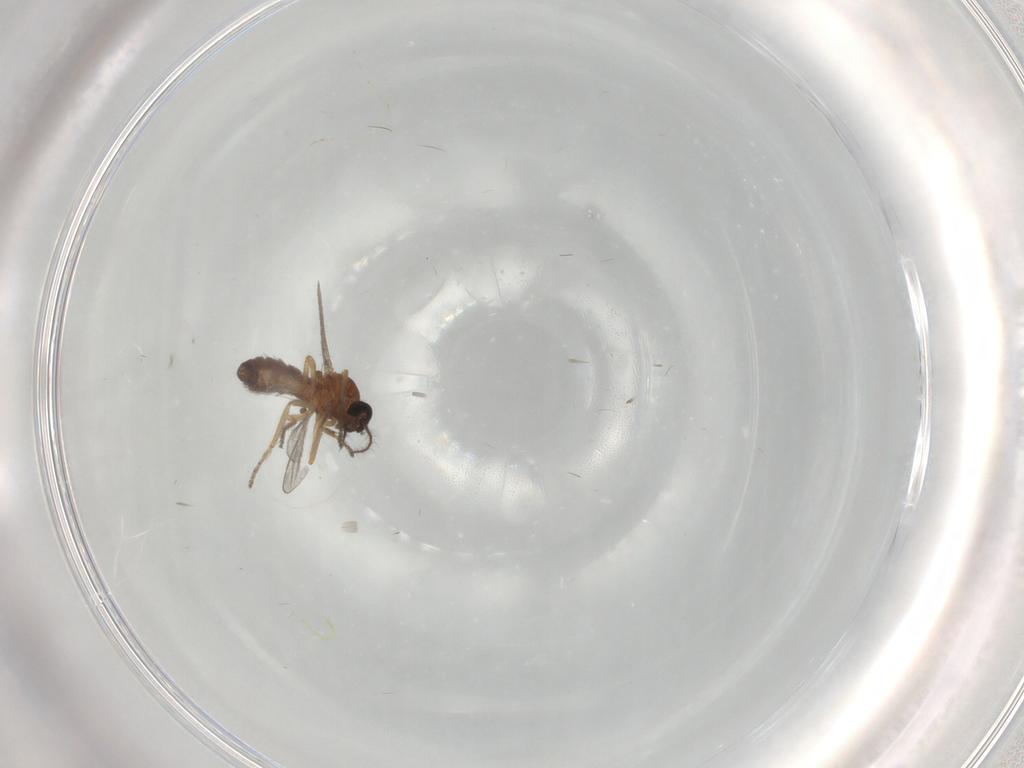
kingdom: Animalia
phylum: Arthropoda
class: Insecta
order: Diptera
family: Ceratopogonidae
